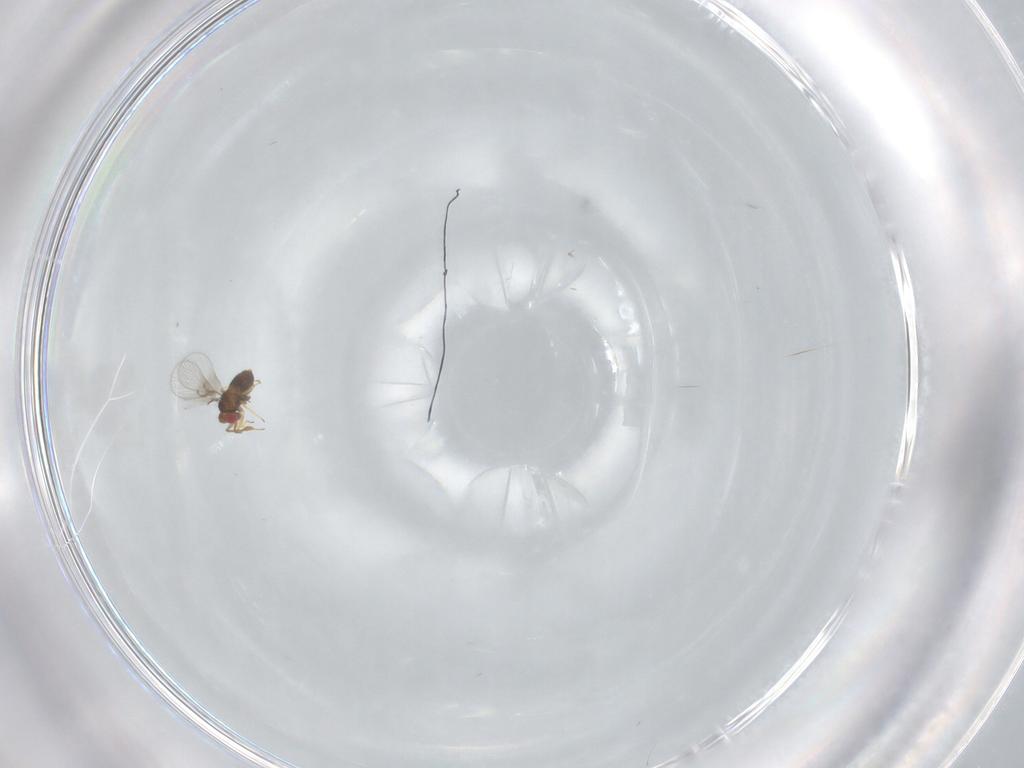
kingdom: Animalia
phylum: Arthropoda
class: Insecta
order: Hymenoptera
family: Trichogrammatidae
